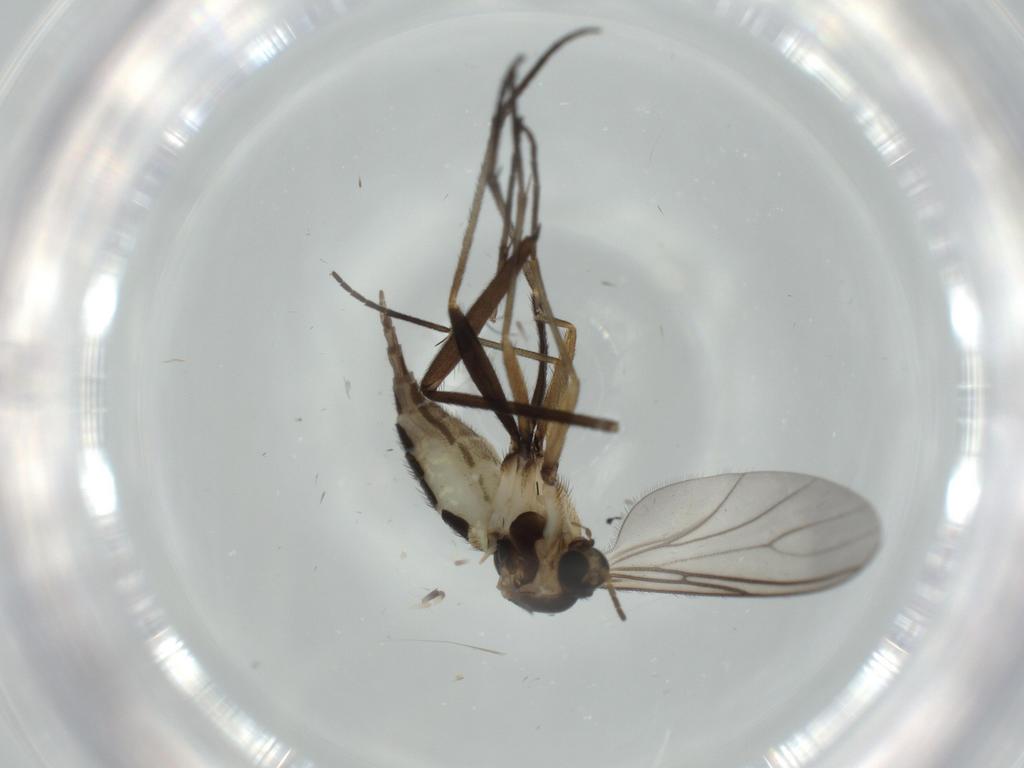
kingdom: Animalia
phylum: Arthropoda
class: Insecta
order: Diptera
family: Sciaridae
